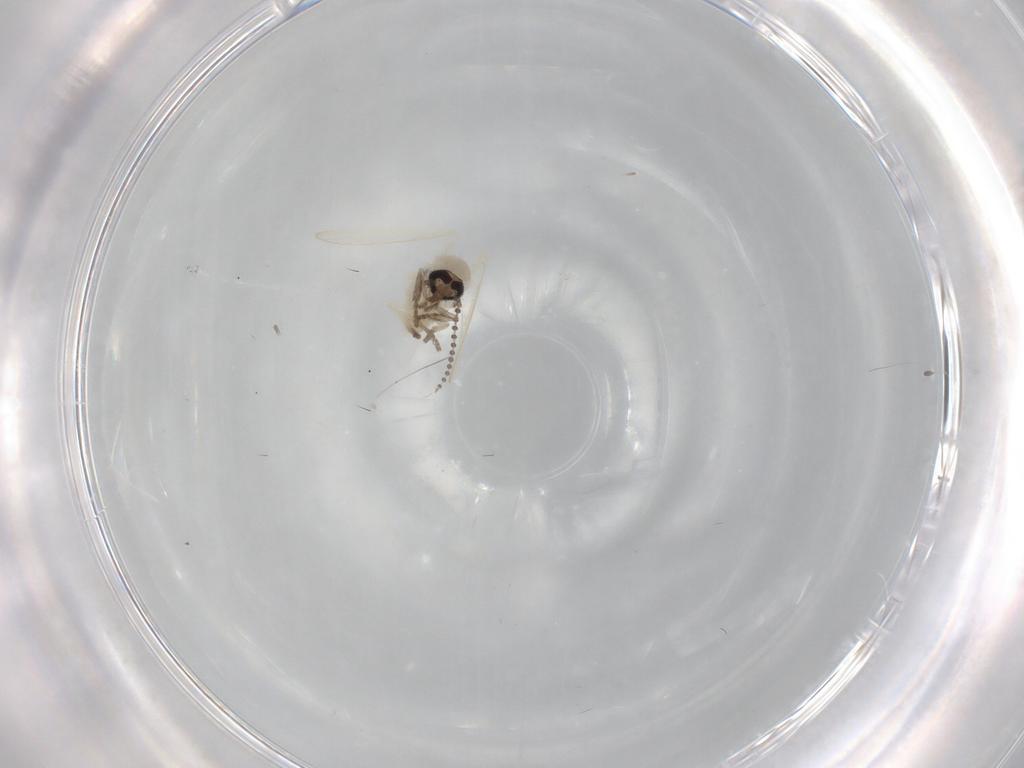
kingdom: Animalia
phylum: Arthropoda
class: Insecta
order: Diptera
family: Psychodidae
